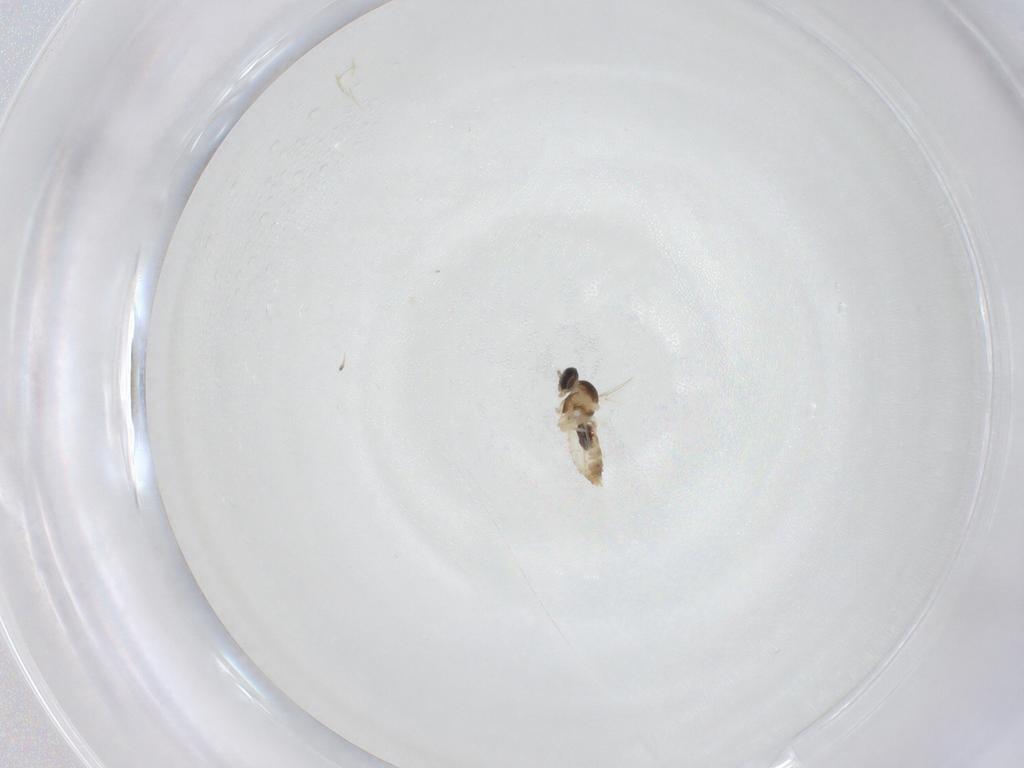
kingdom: Animalia
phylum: Arthropoda
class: Insecta
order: Diptera
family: Cecidomyiidae
